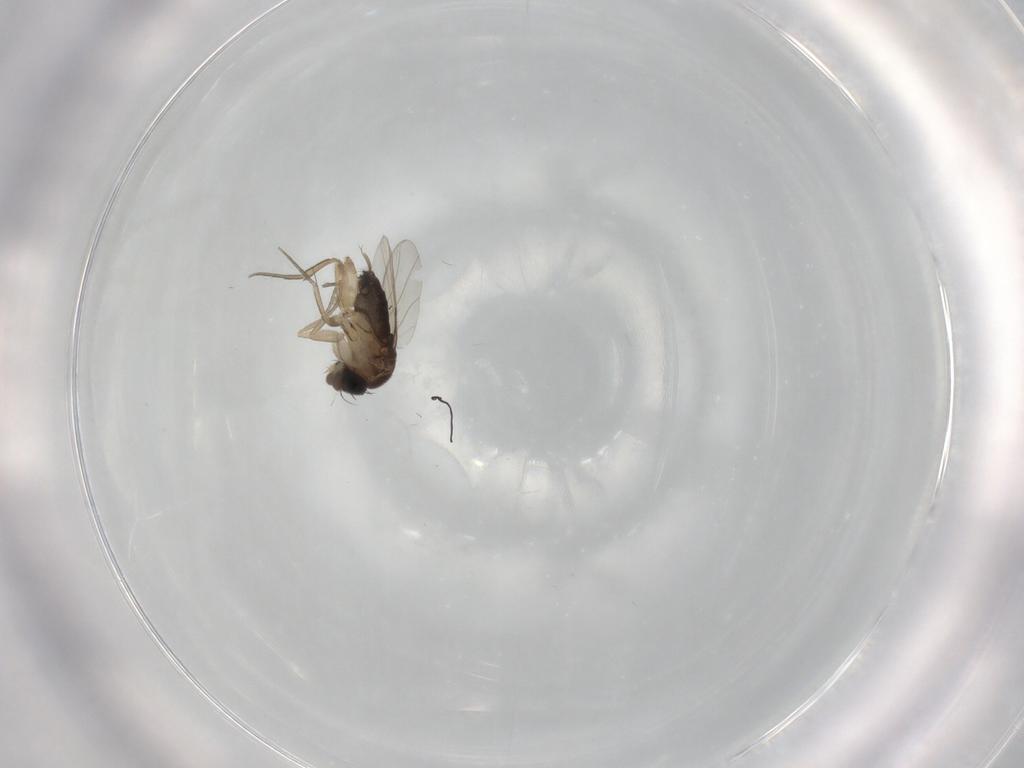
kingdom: Animalia
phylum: Arthropoda
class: Insecta
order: Diptera
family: Phoridae
